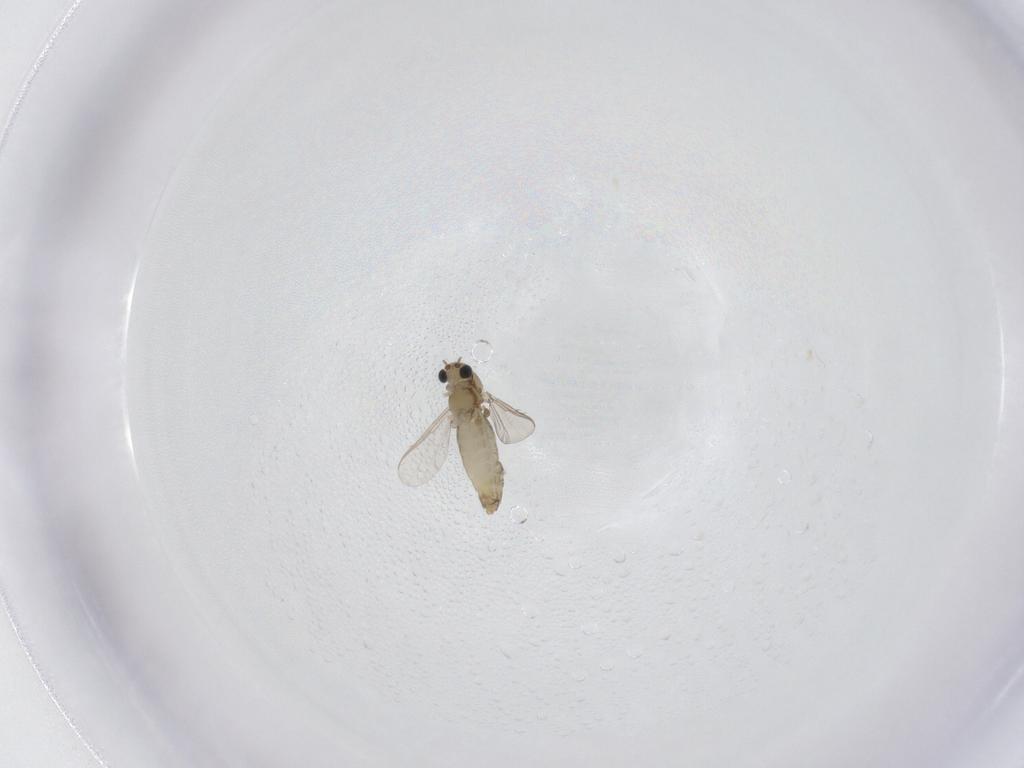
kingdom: Animalia
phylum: Arthropoda
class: Insecta
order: Diptera
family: Chironomidae
